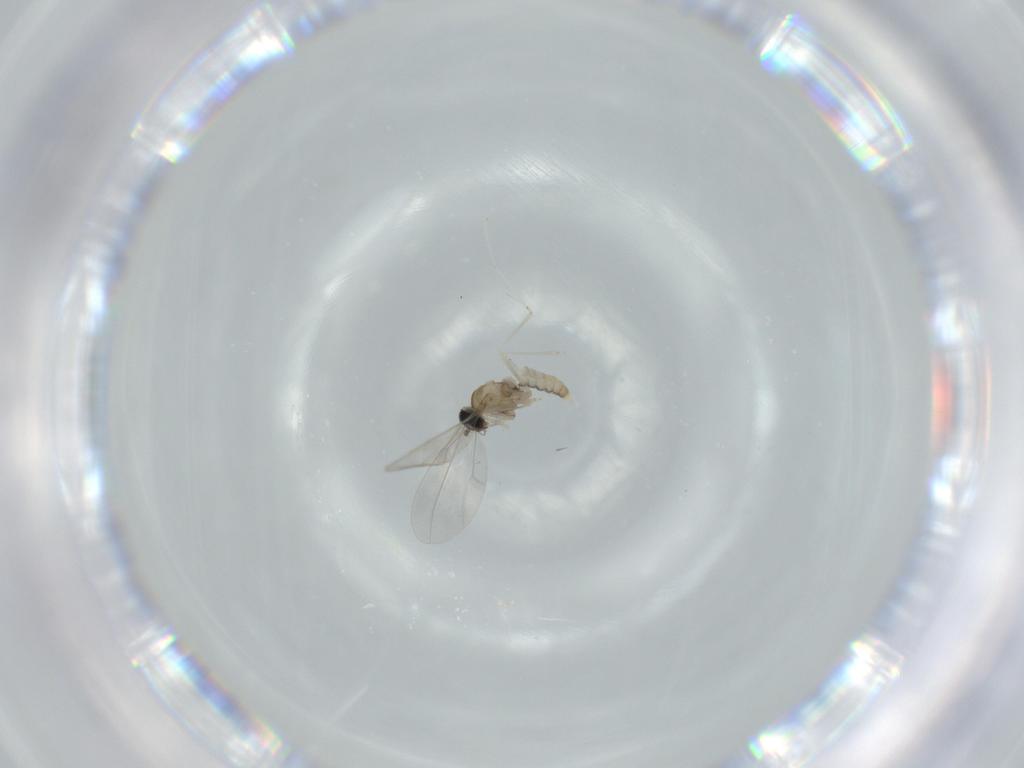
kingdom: Animalia
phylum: Arthropoda
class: Insecta
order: Diptera
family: Cecidomyiidae
